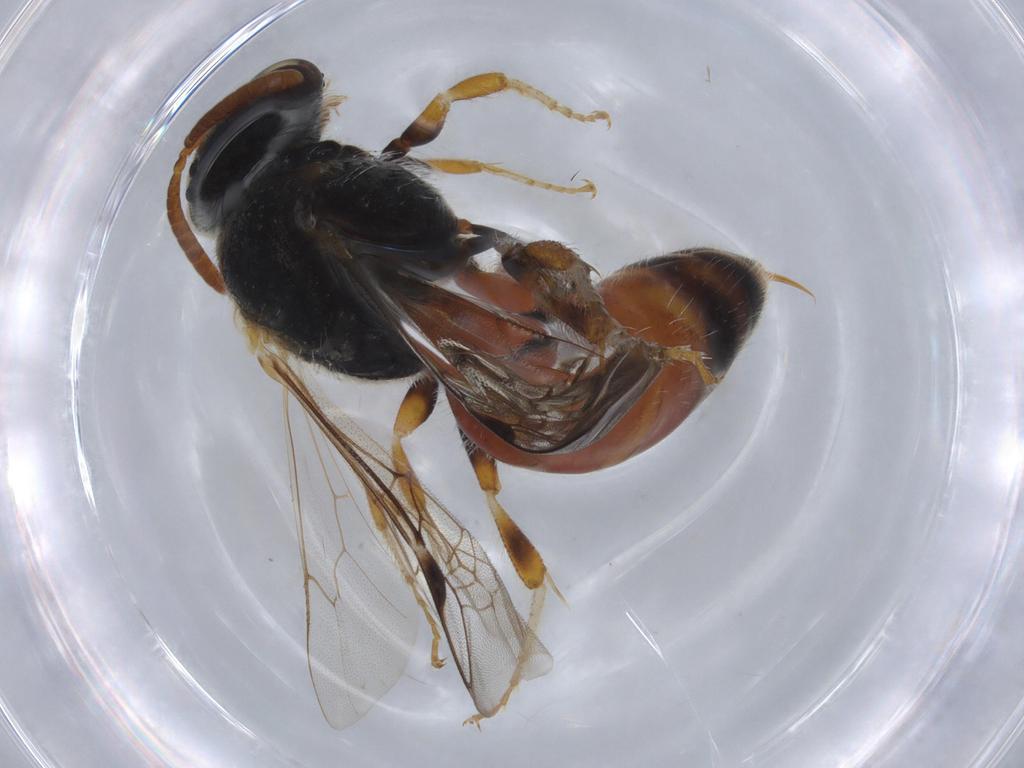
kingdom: Animalia
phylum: Arthropoda
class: Insecta
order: Hymenoptera
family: Halictidae
